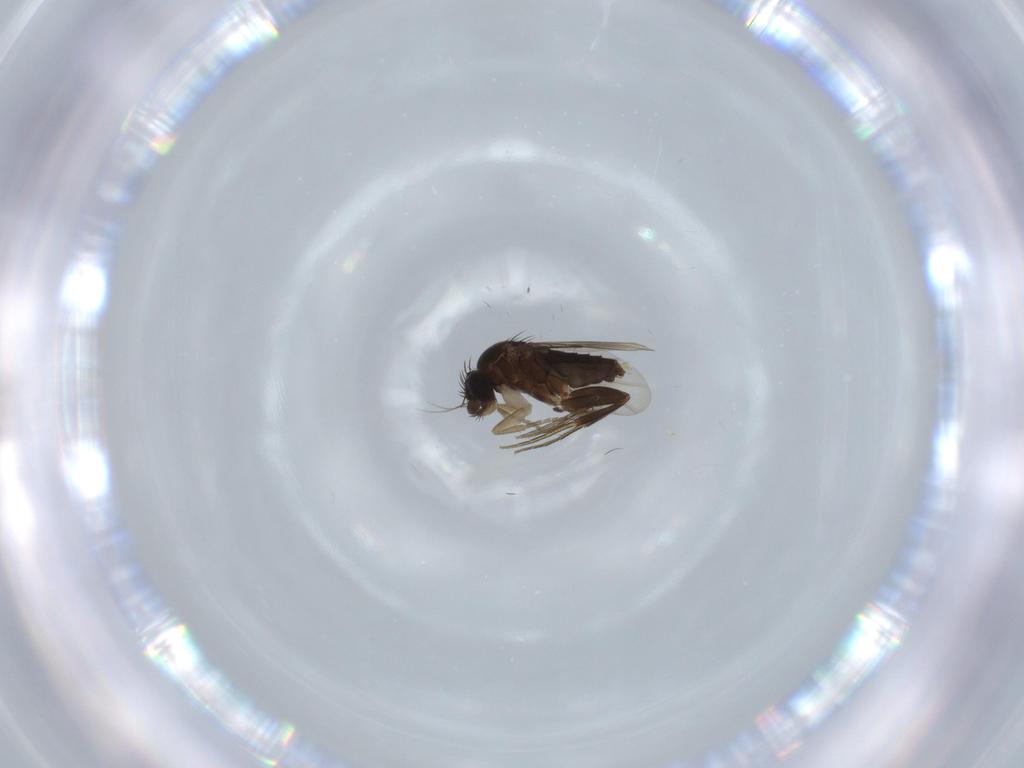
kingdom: Animalia
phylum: Arthropoda
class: Insecta
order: Diptera
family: Phoridae
